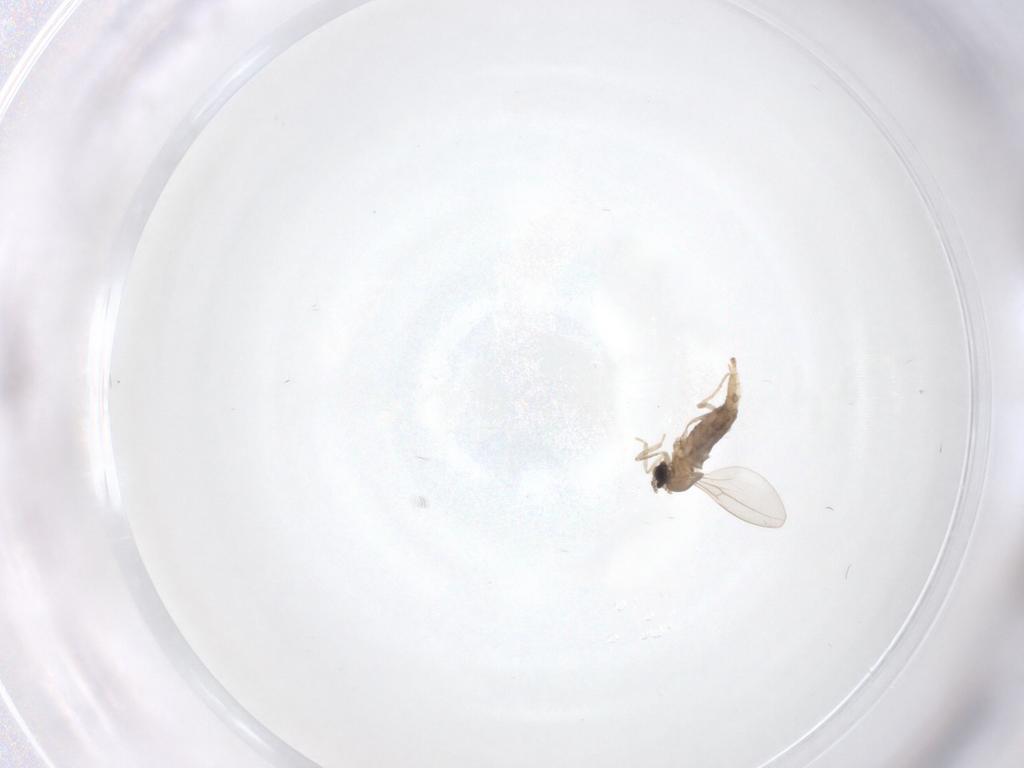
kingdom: Animalia
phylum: Arthropoda
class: Insecta
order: Diptera
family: Cecidomyiidae
